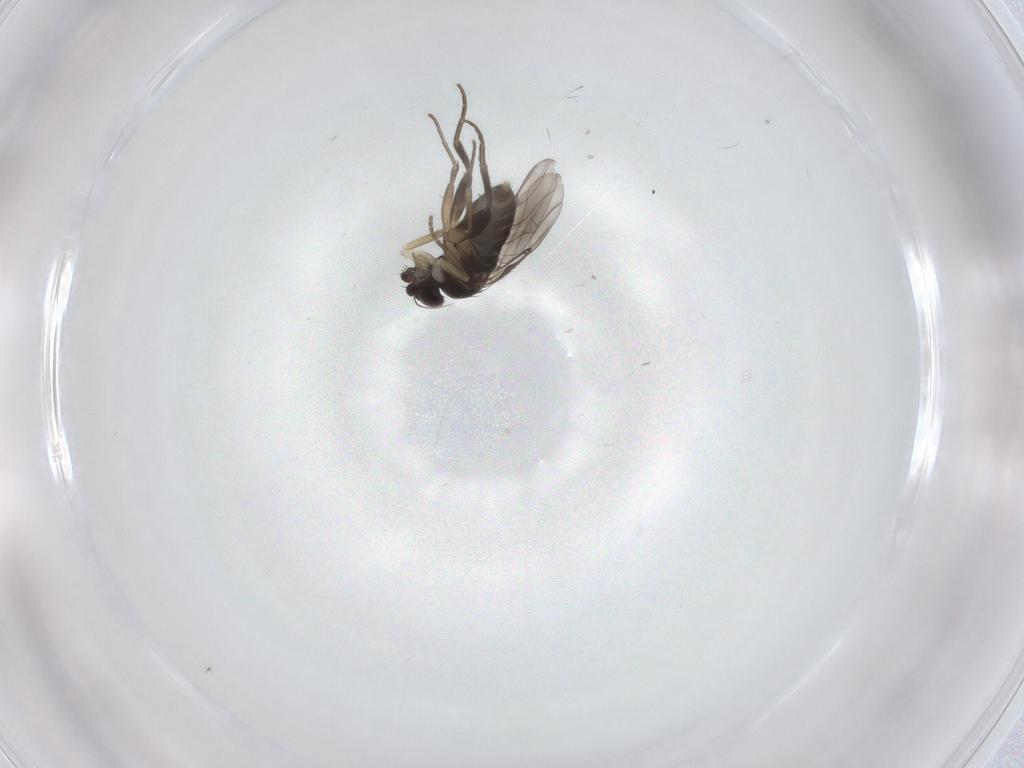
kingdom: Animalia
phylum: Arthropoda
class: Insecta
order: Diptera
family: Phoridae
